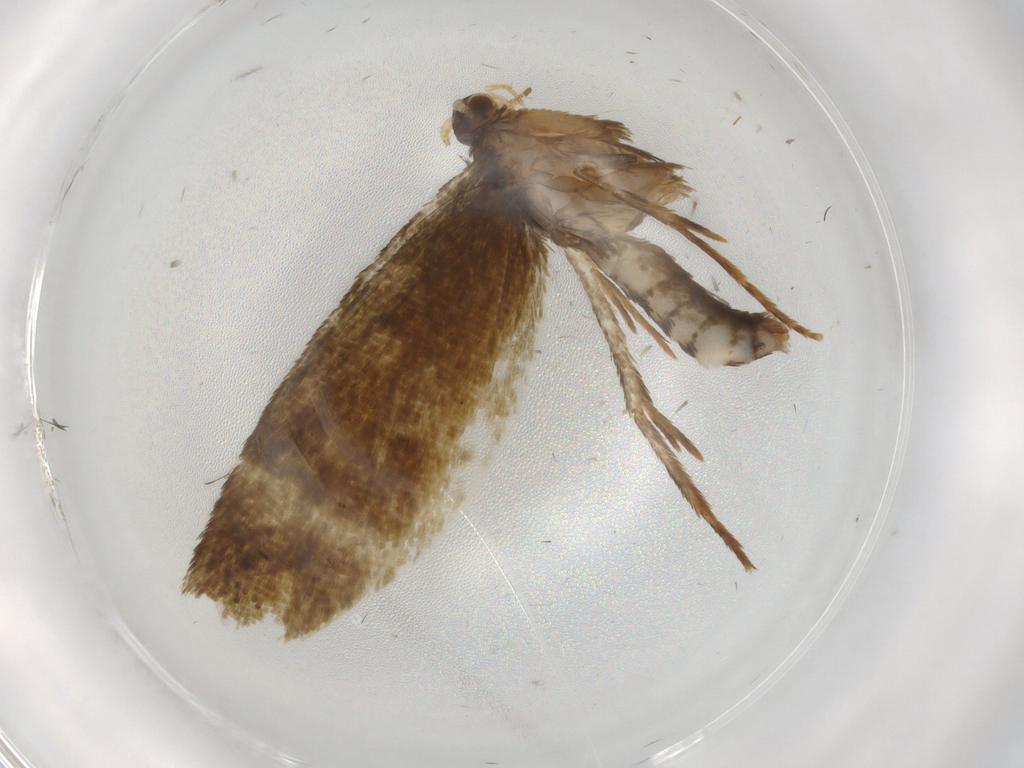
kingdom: Animalia
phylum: Arthropoda
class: Insecta
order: Lepidoptera
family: Tineidae
